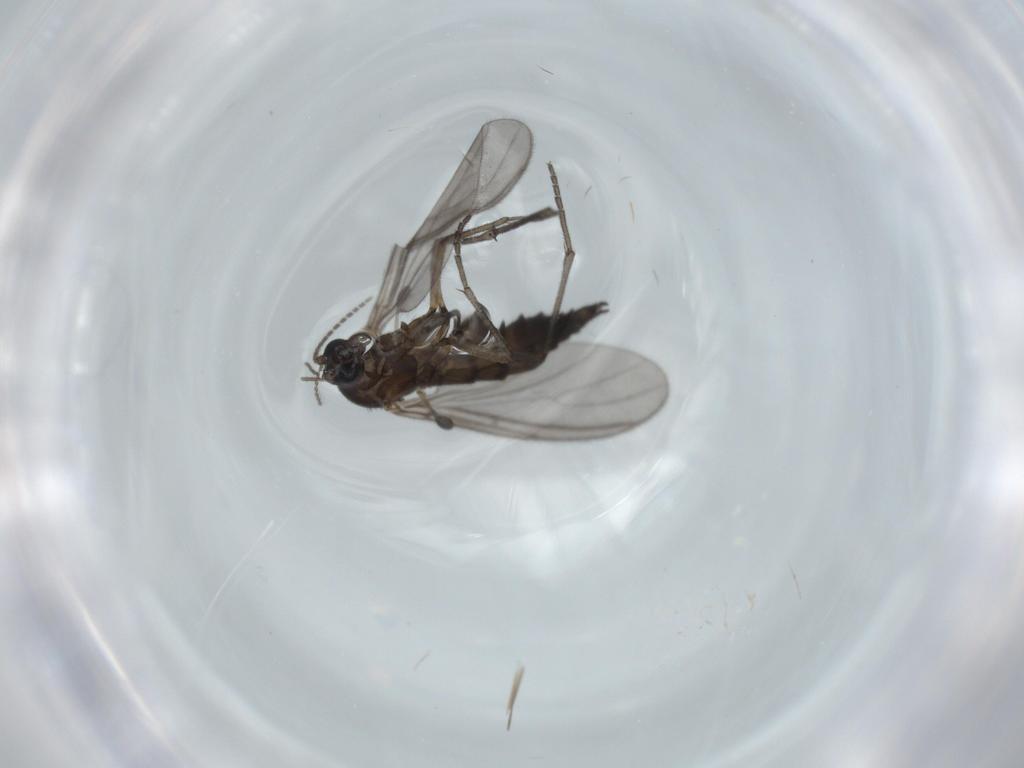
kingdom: Animalia
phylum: Arthropoda
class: Insecta
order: Diptera
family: Sciaridae
